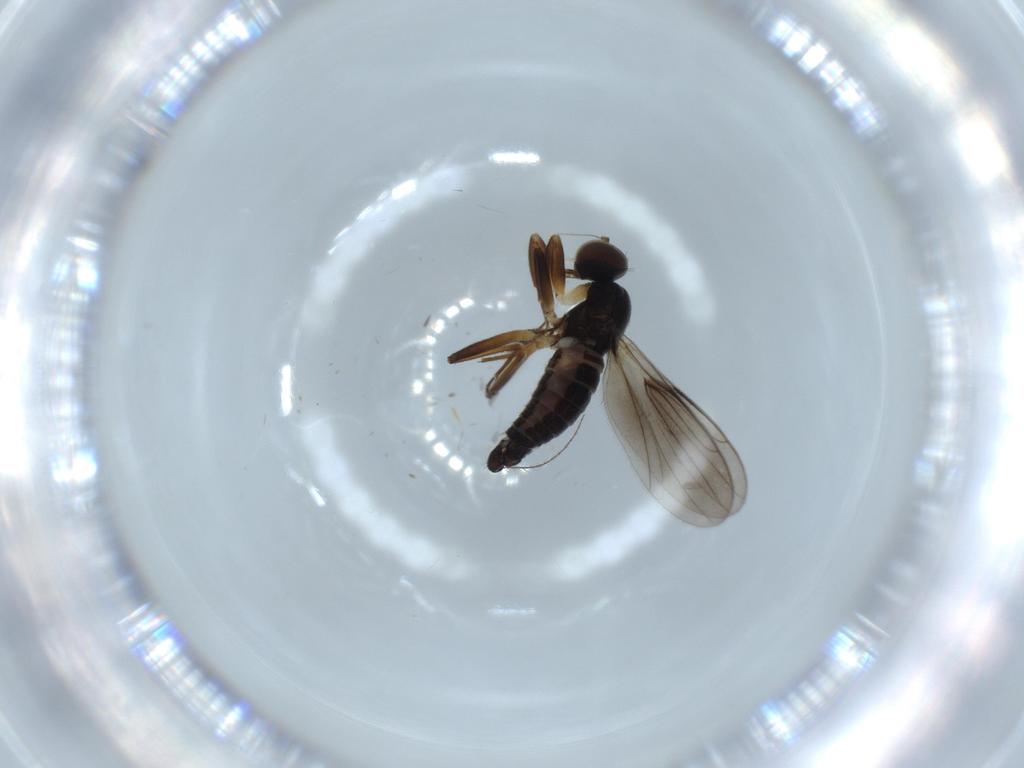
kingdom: Animalia
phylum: Arthropoda
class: Insecta
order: Diptera
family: Hybotidae
